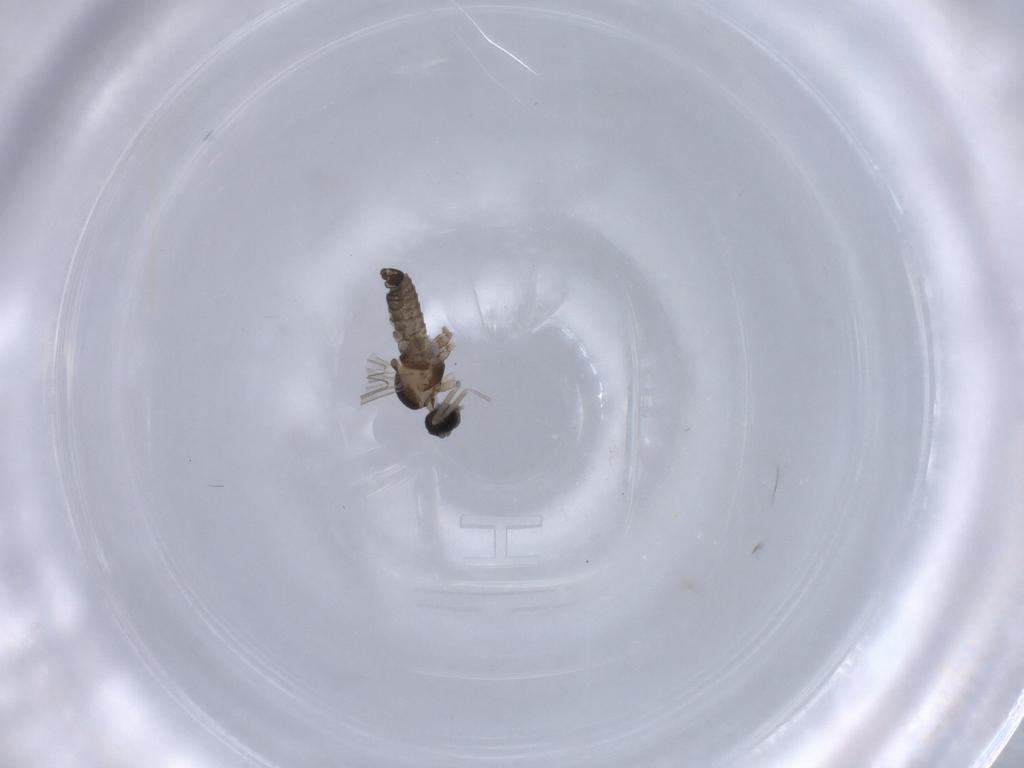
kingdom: Animalia
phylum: Arthropoda
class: Insecta
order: Diptera
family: Cecidomyiidae
